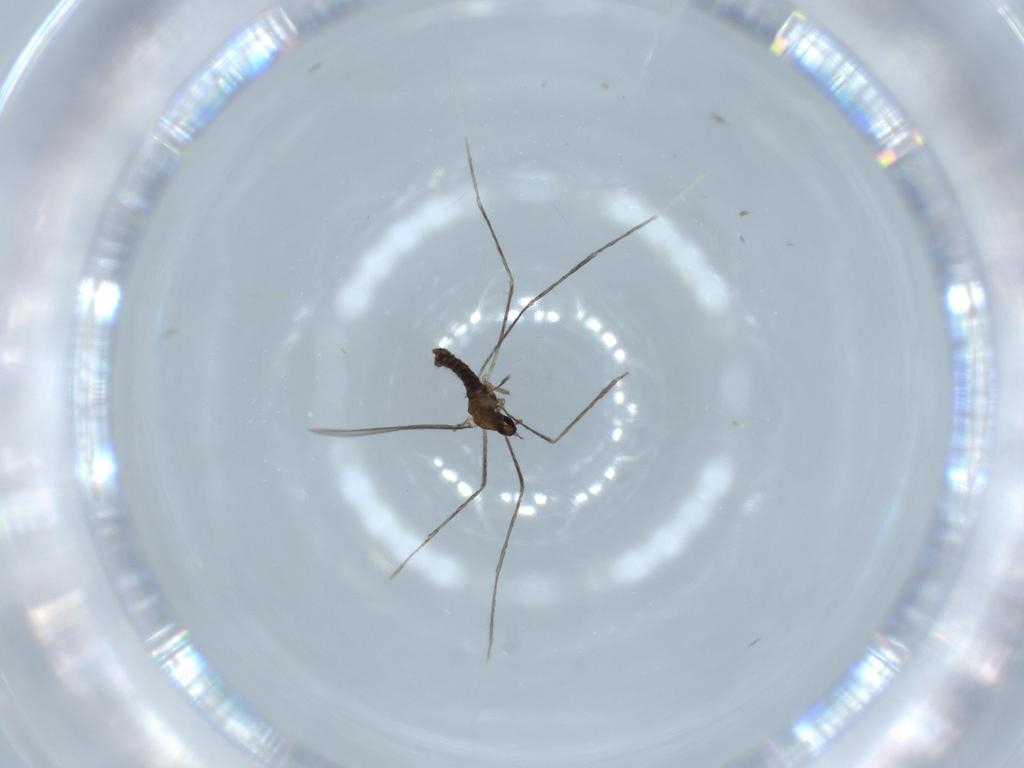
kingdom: Animalia
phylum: Arthropoda
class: Insecta
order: Diptera
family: Cecidomyiidae
